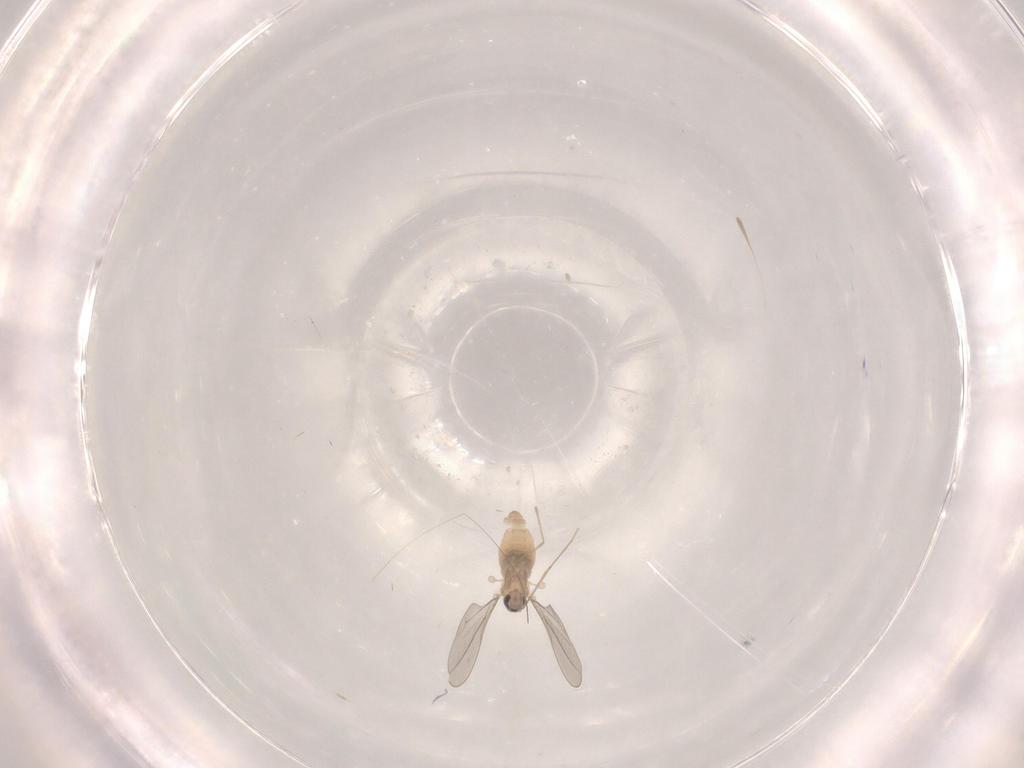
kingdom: Animalia
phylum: Arthropoda
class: Insecta
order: Diptera
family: Sciaridae
